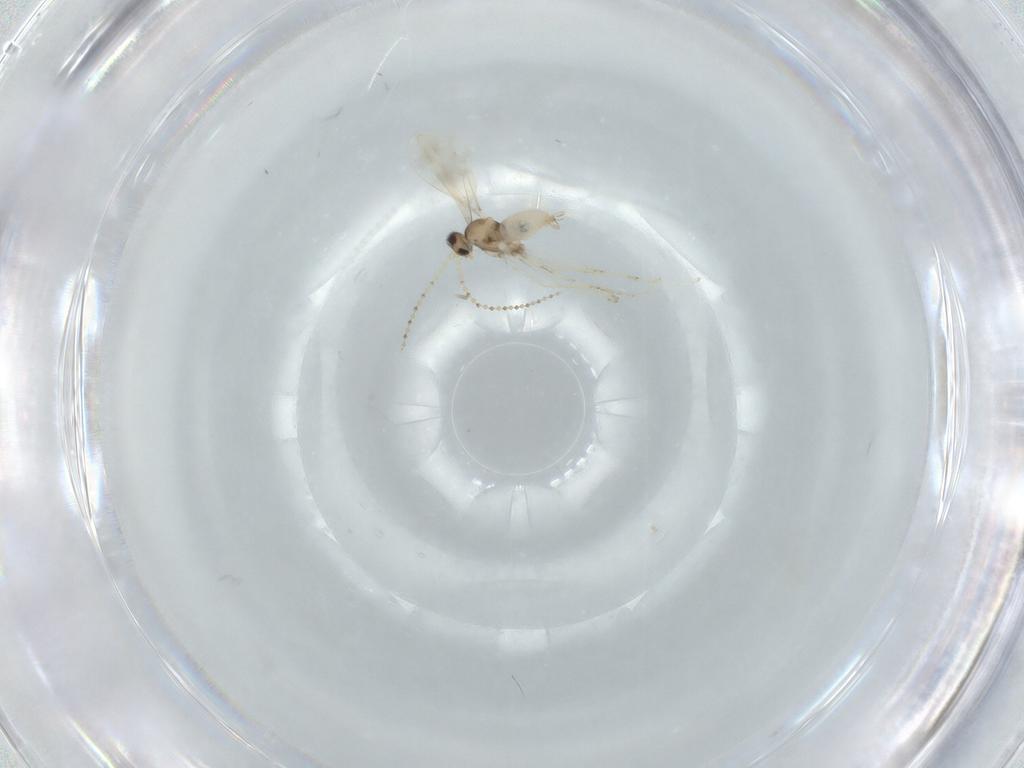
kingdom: Animalia
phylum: Arthropoda
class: Insecta
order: Diptera
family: Cecidomyiidae
